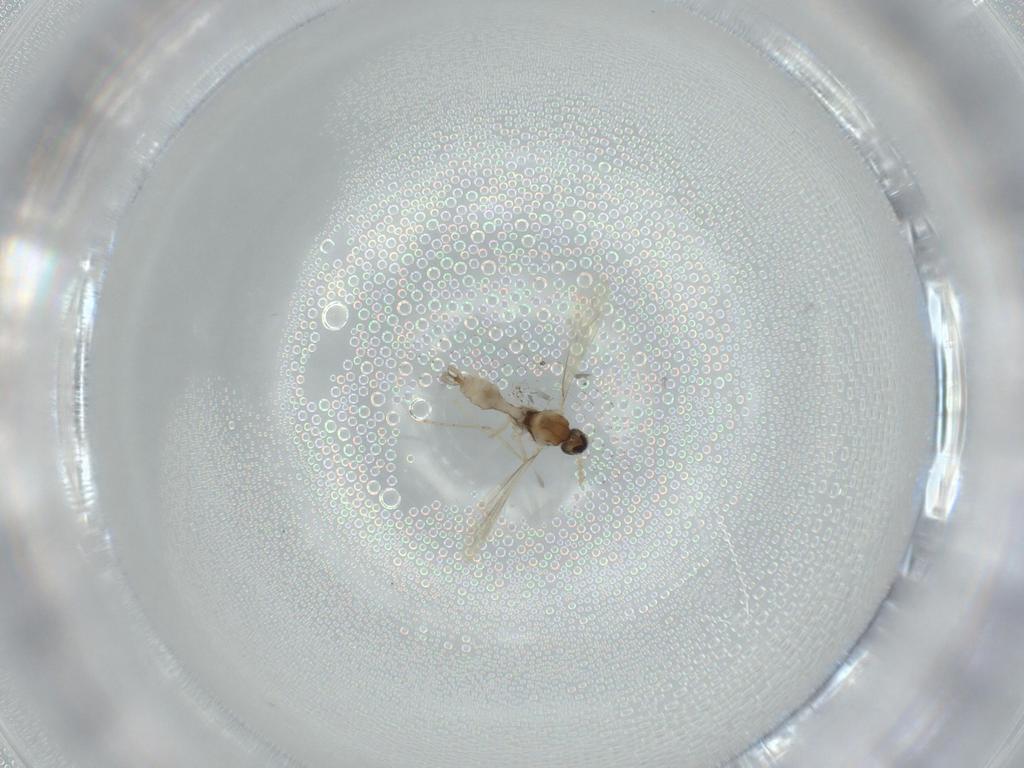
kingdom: Animalia
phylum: Arthropoda
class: Insecta
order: Diptera
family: Cecidomyiidae
